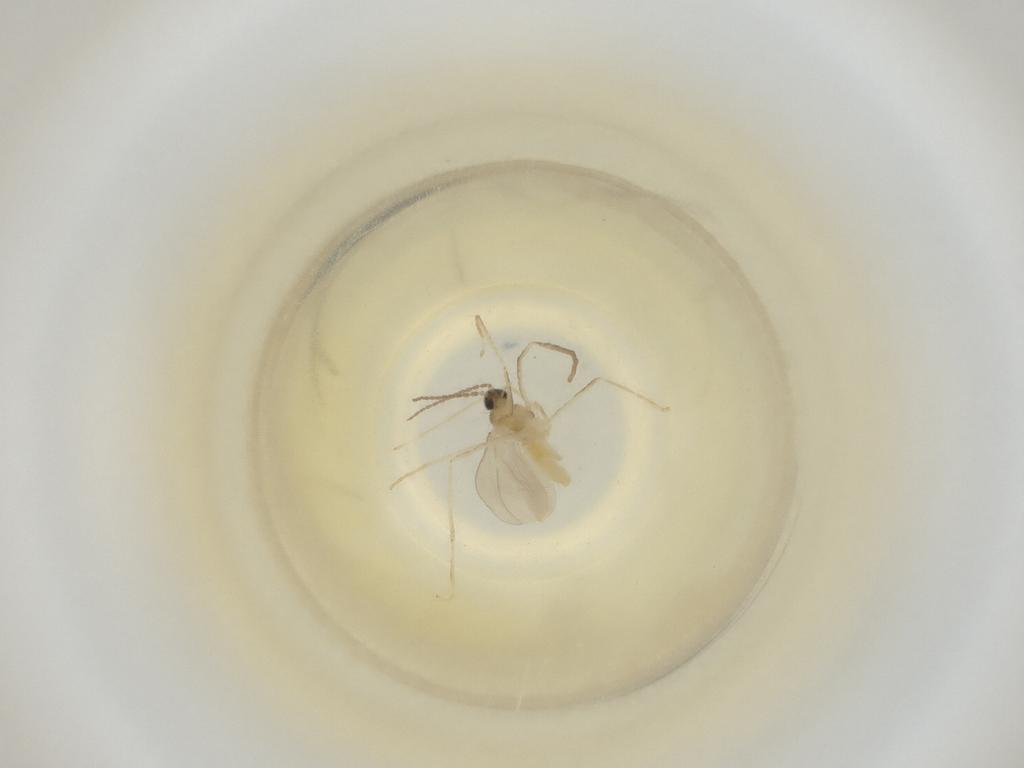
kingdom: Animalia
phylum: Arthropoda
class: Insecta
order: Diptera
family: Cecidomyiidae
